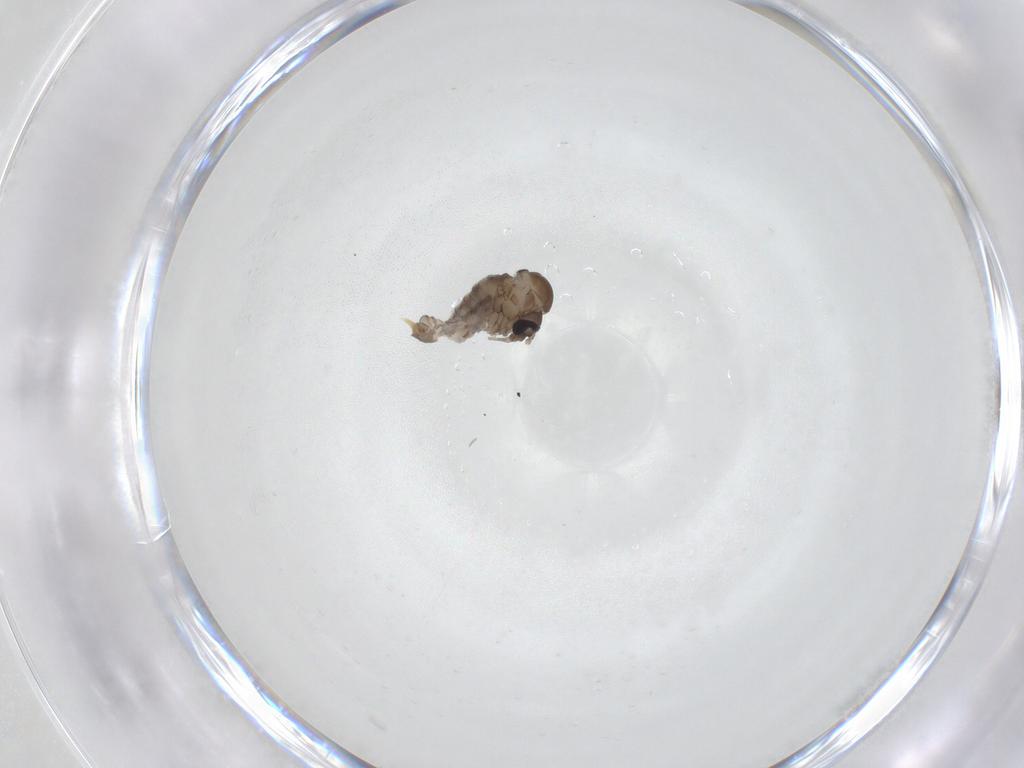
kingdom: Animalia
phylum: Arthropoda
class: Insecta
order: Diptera
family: Psychodidae
